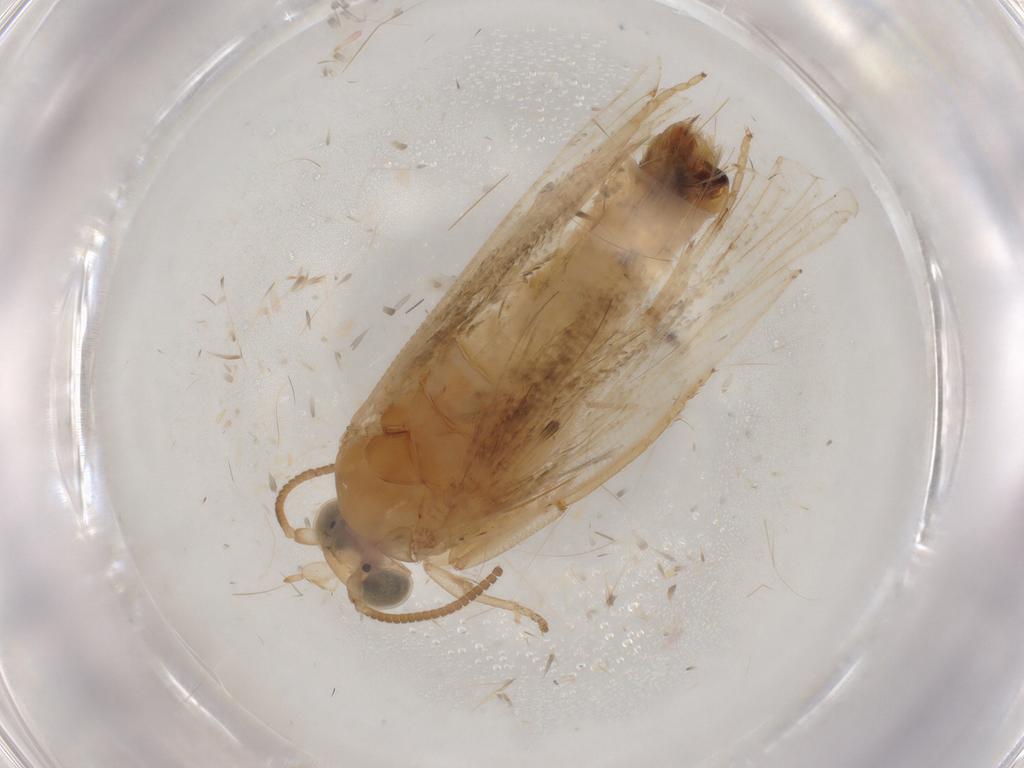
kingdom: Animalia
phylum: Arthropoda
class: Insecta
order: Lepidoptera
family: Tortricidae
